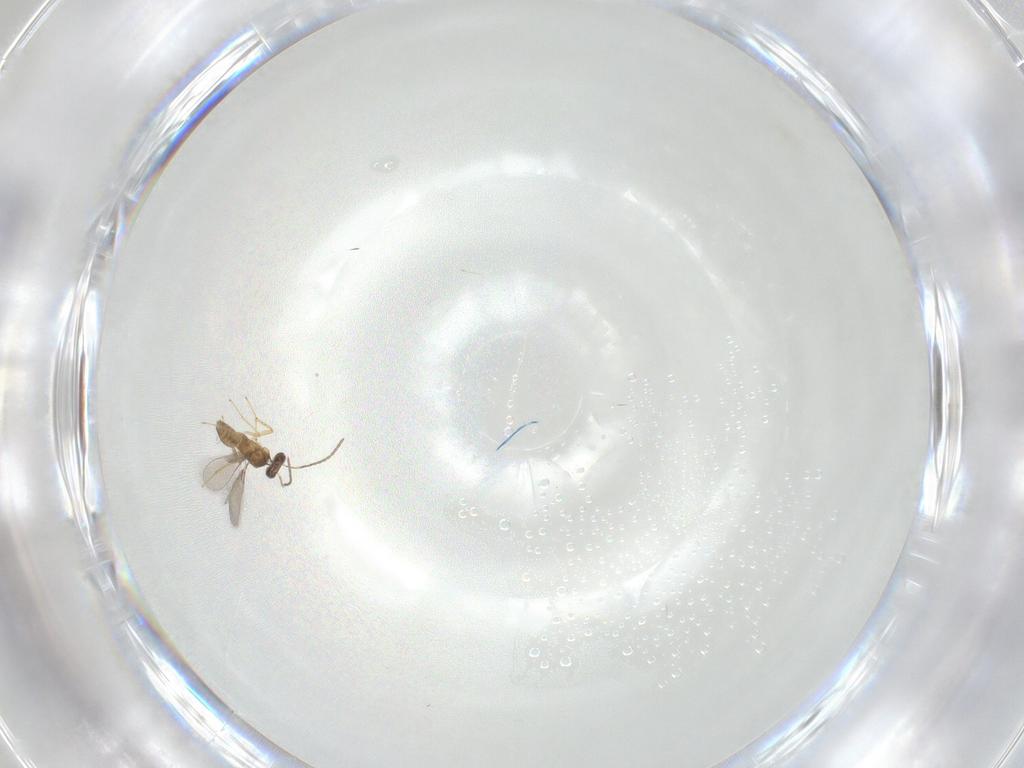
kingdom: Animalia
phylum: Arthropoda
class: Insecta
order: Hymenoptera
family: Mymaridae
